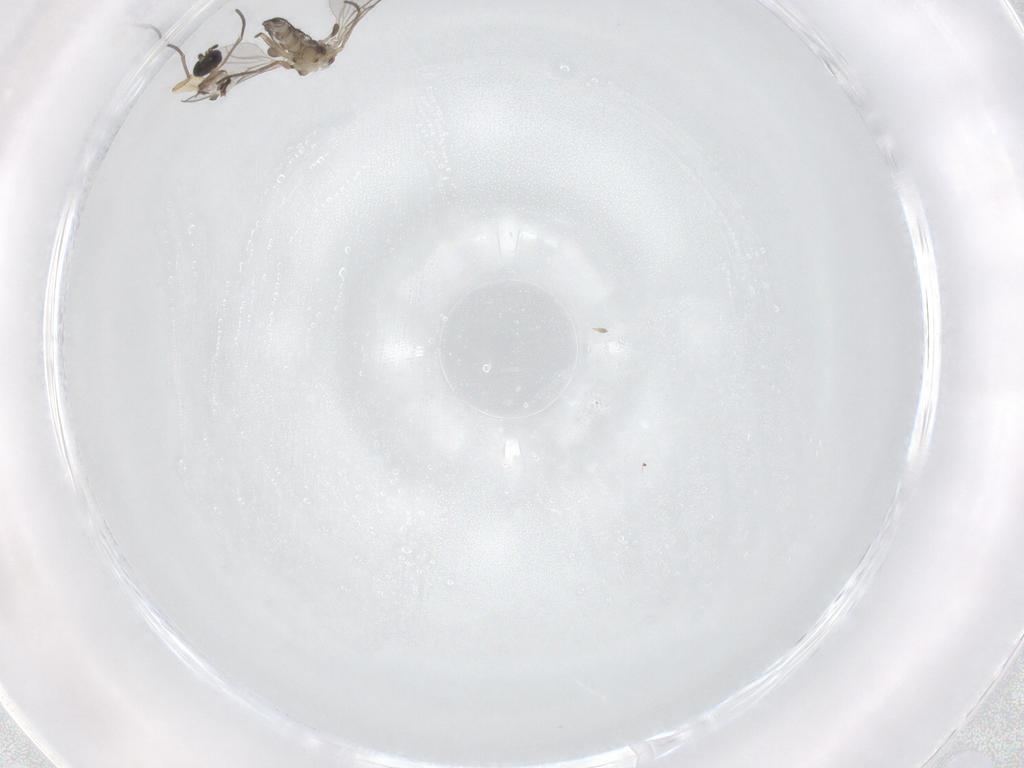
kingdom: Animalia
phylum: Arthropoda
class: Insecta
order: Diptera
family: Sciaridae
